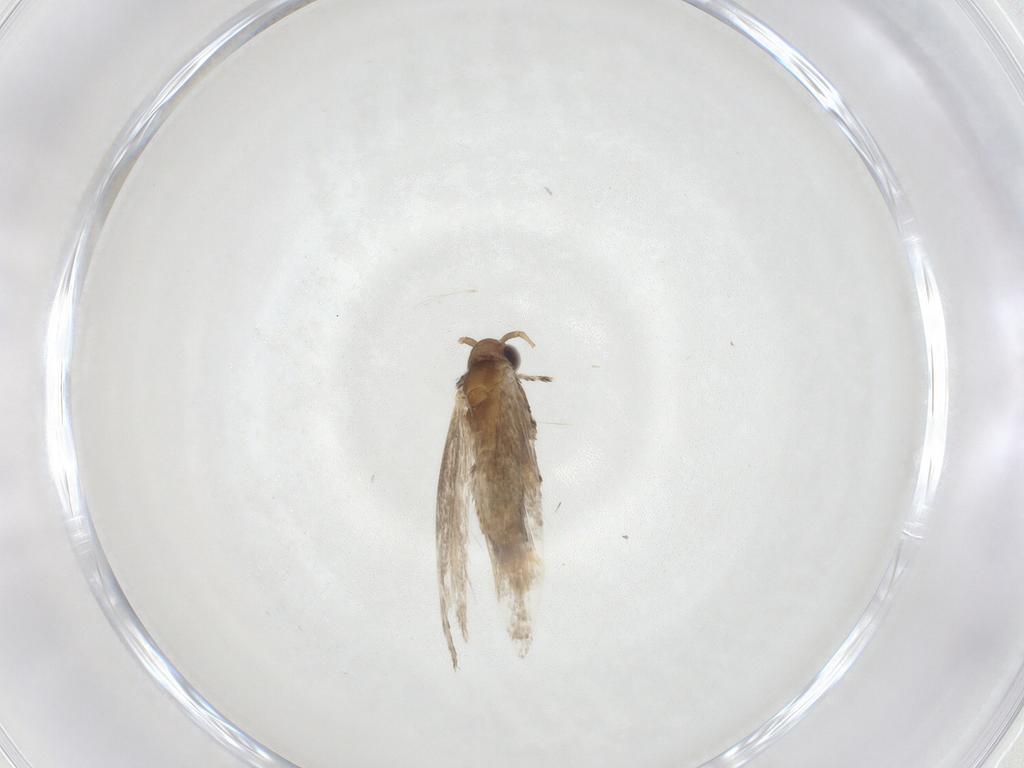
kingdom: Animalia
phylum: Arthropoda
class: Insecta
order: Lepidoptera
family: Gracillariidae
